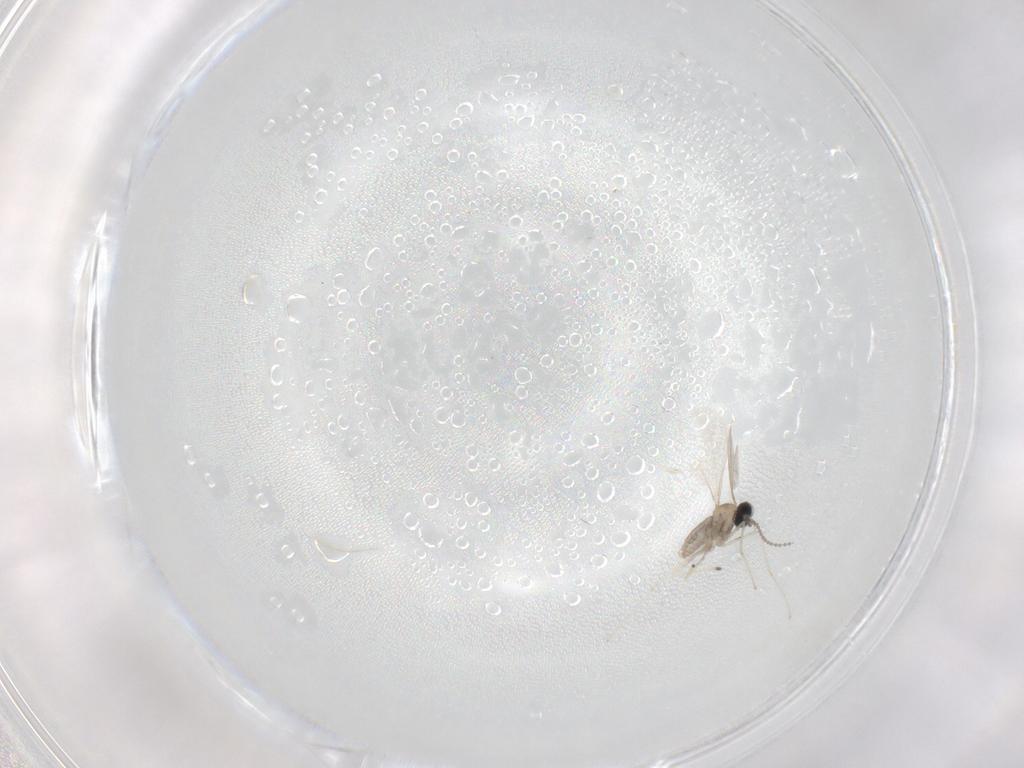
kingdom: Animalia
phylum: Arthropoda
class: Insecta
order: Diptera
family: Cecidomyiidae
